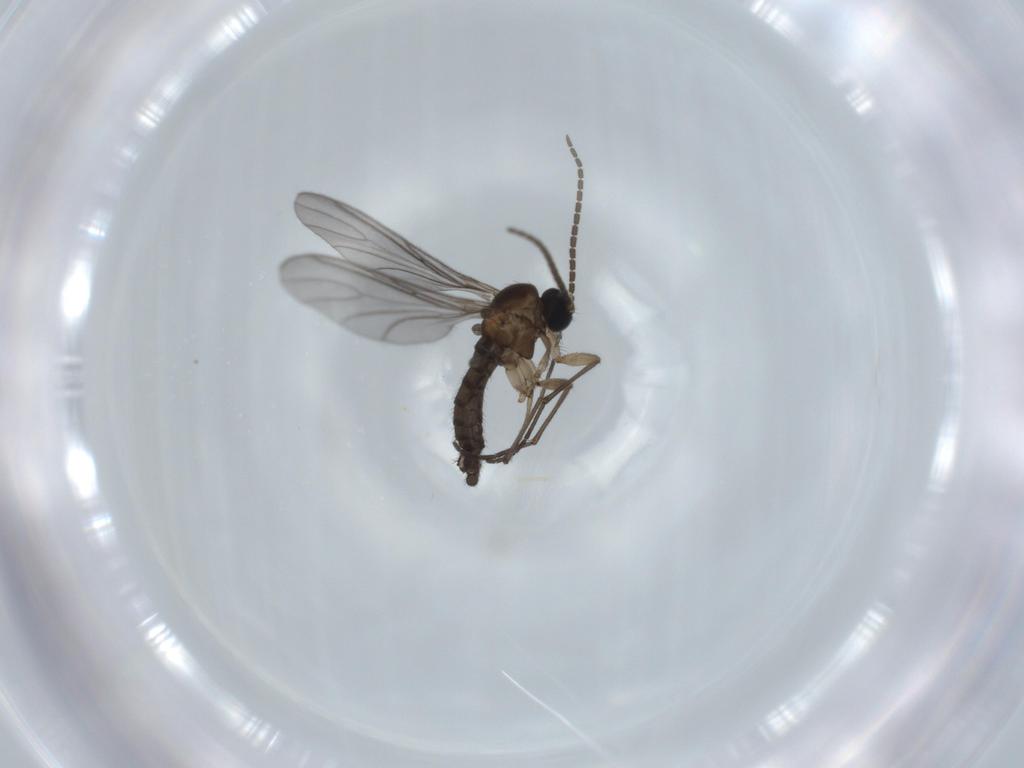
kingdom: Animalia
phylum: Arthropoda
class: Insecta
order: Diptera
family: Sciaridae
